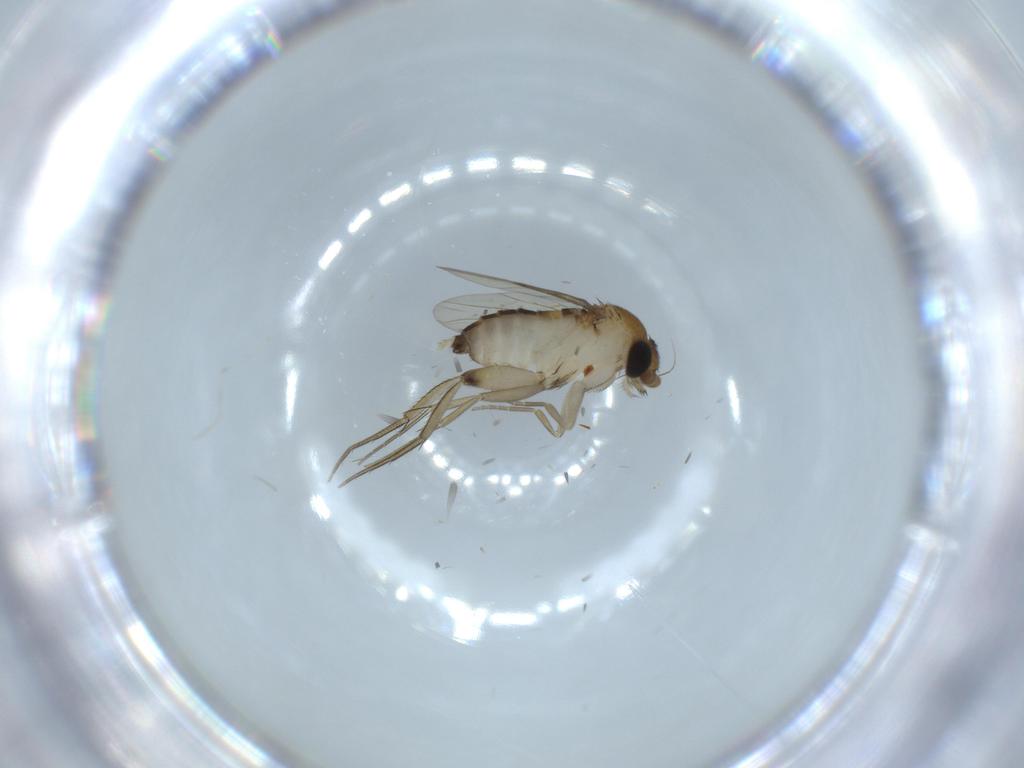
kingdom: Animalia
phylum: Arthropoda
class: Insecta
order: Diptera
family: Phoridae
